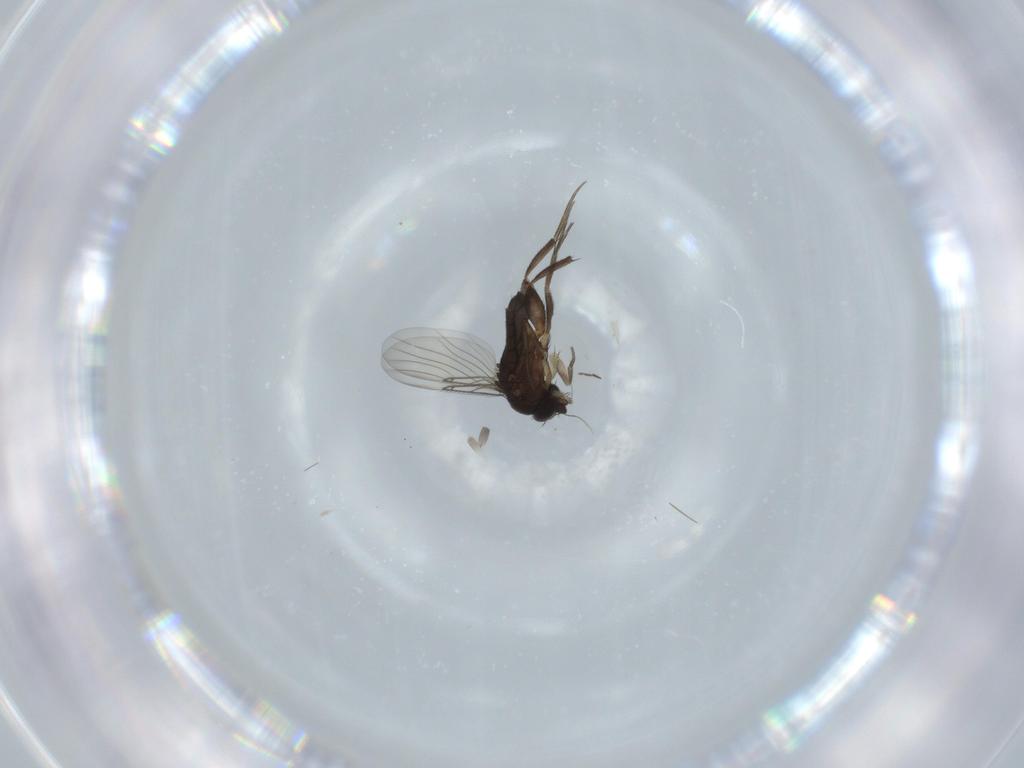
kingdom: Animalia
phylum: Arthropoda
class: Insecta
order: Diptera
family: Phoridae
